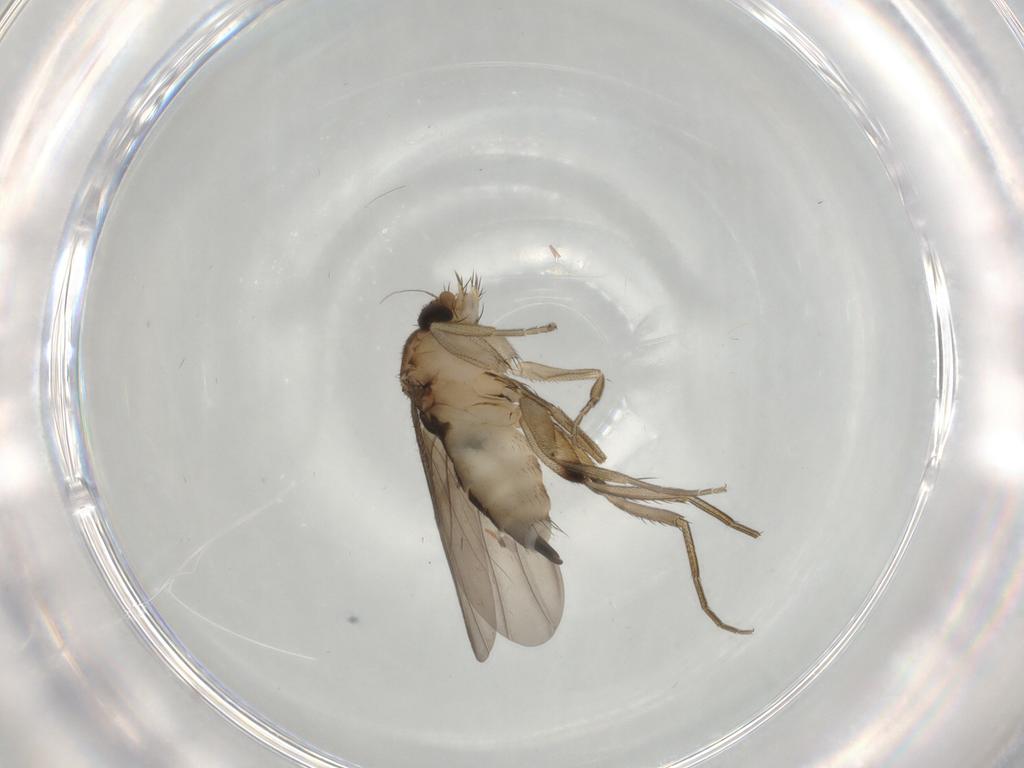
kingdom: Animalia
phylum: Arthropoda
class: Insecta
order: Diptera
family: Phoridae
